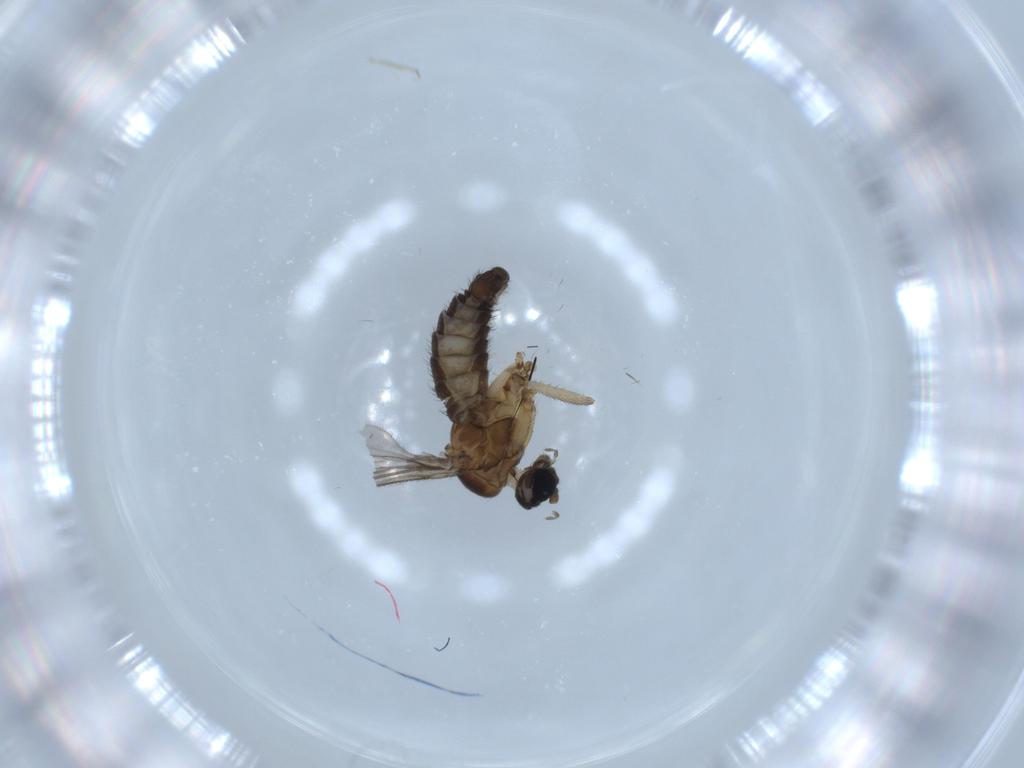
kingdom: Animalia
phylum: Arthropoda
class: Insecta
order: Diptera
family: Sciaridae
